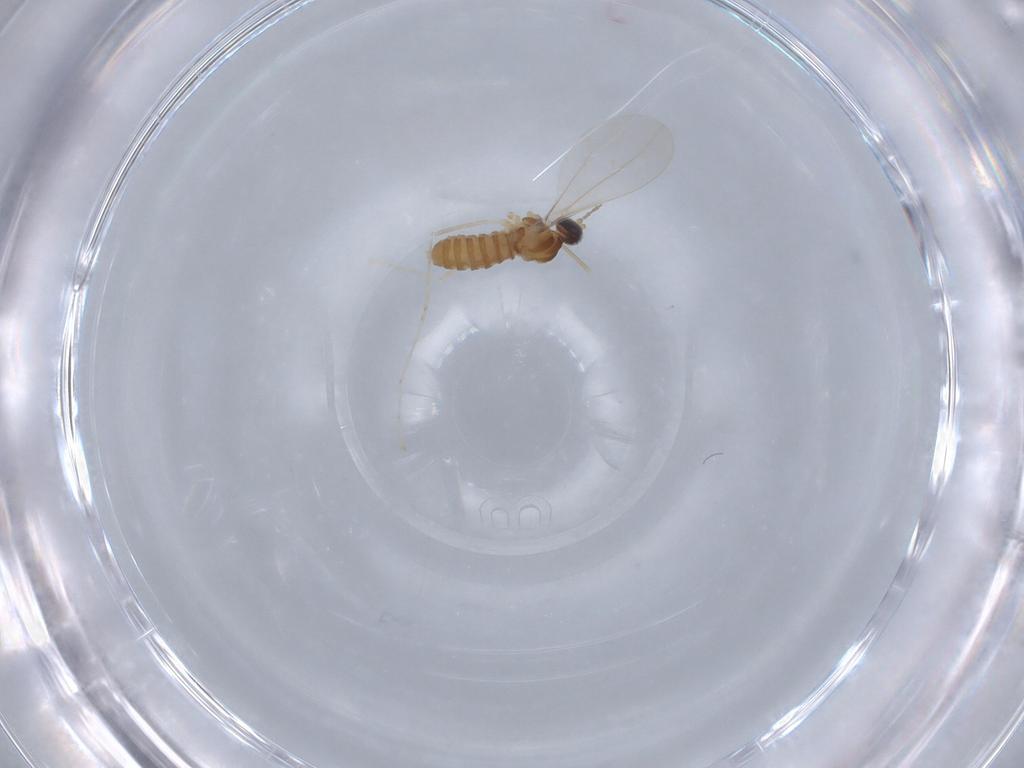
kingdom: Animalia
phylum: Arthropoda
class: Insecta
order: Diptera
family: Cecidomyiidae
